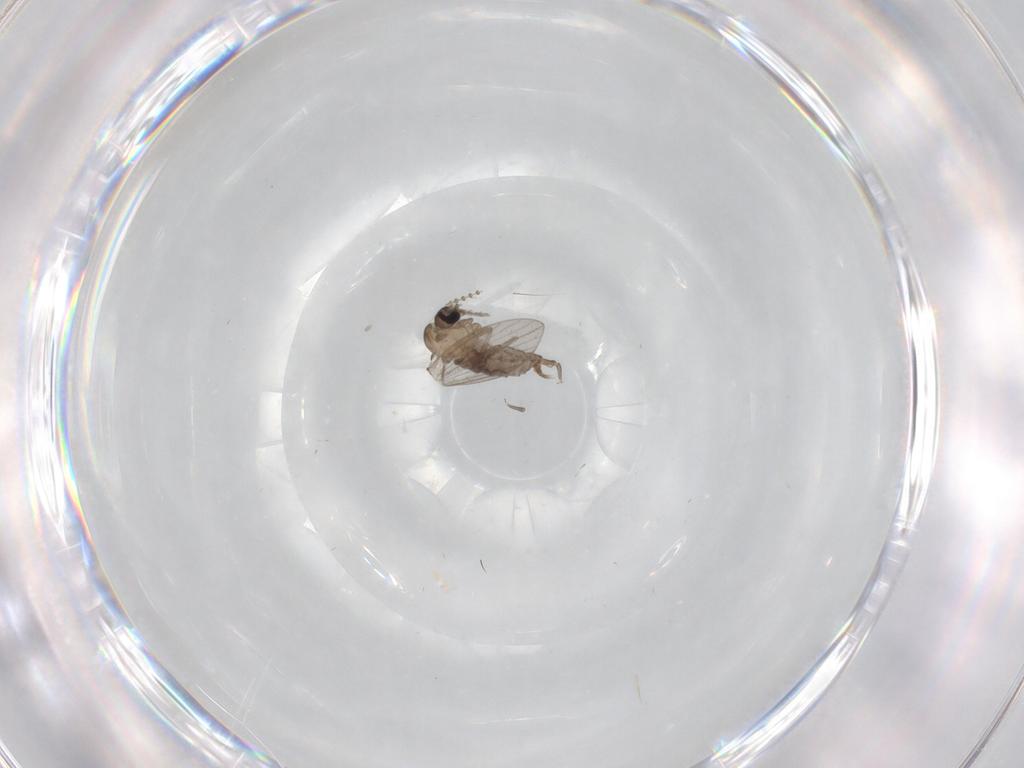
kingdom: Animalia
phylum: Arthropoda
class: Insecta
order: Diptera
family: Psychodidae
